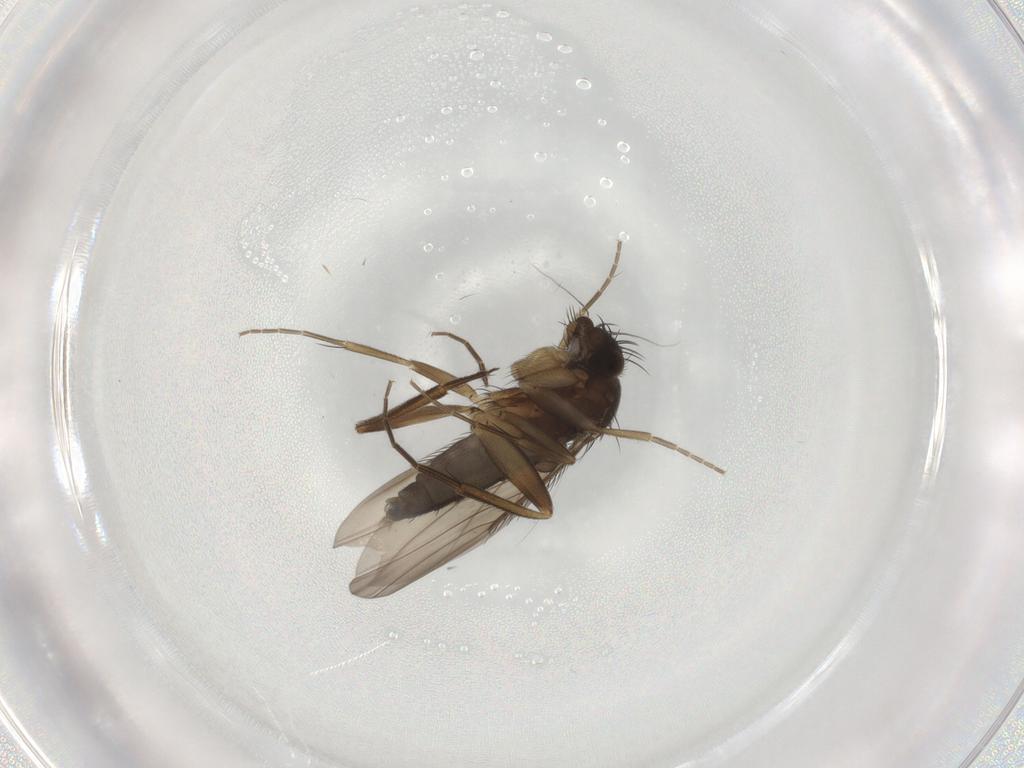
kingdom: Animalia
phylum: Arthropoda
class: Insecta
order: Diptera
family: Phoridae
